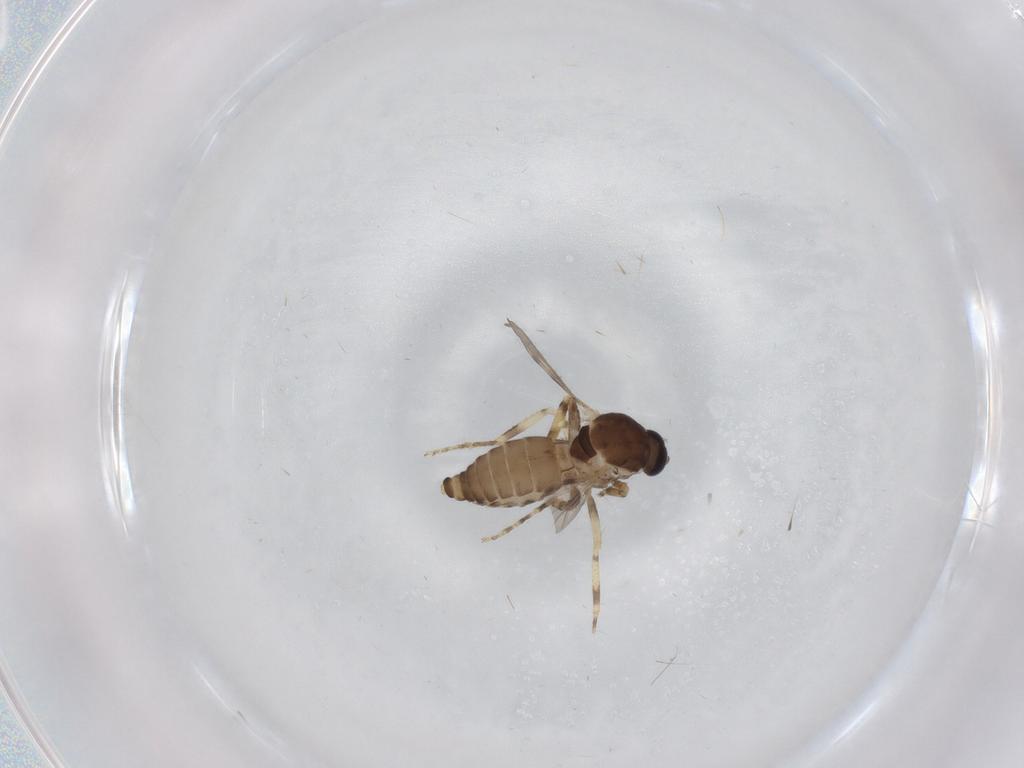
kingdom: Animalia
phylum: Arthropoda
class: Insecta
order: Diptera
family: Ceratopogonidae
